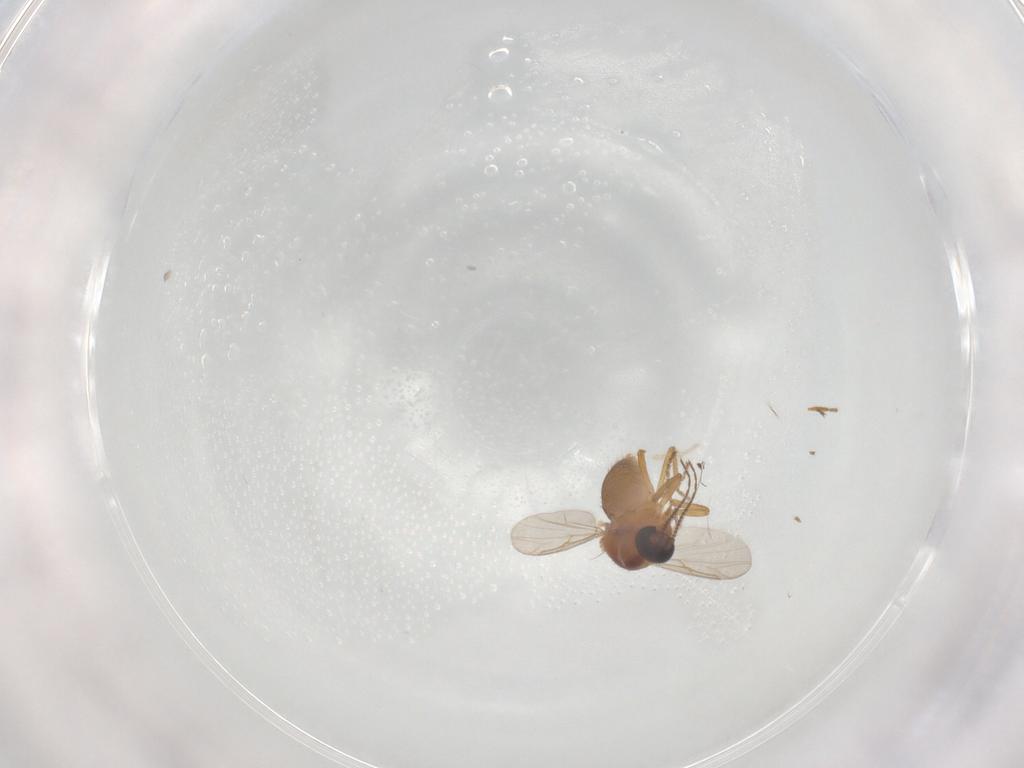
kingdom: Animalia
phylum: Arthropoda
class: Insecta
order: Diptera
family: Ceratopogonidae
